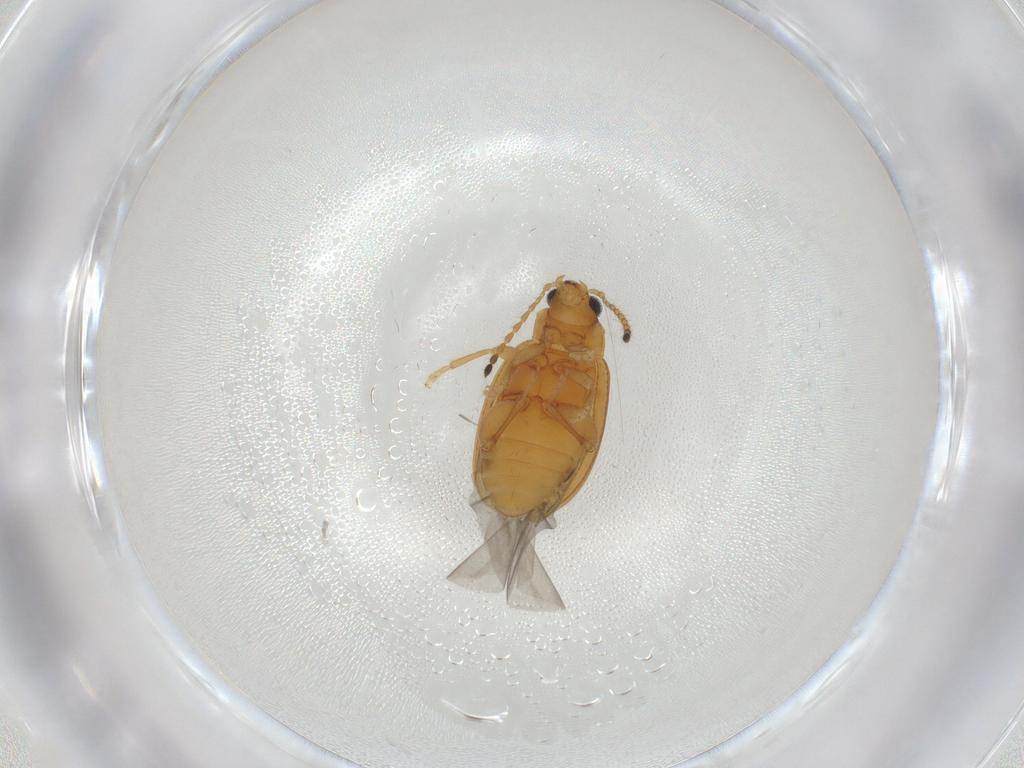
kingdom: Animalia
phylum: Arthropoda
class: Insecta
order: Coleoptera
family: Chrysomelidae
